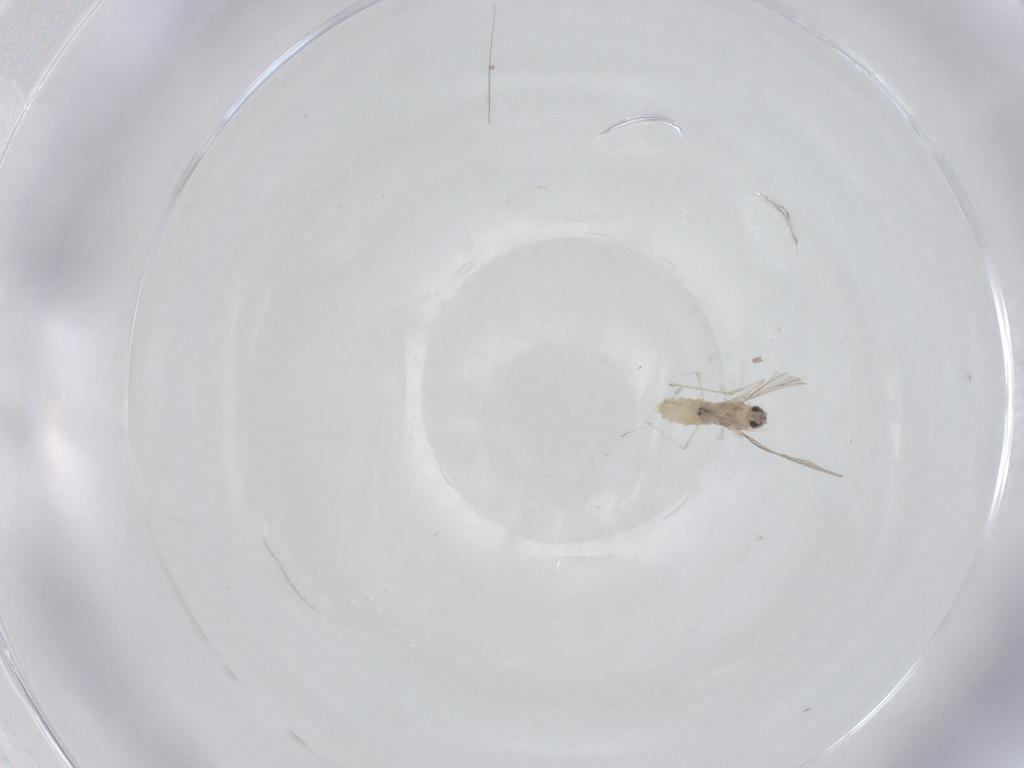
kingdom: Animalia
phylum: Arthropoda
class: Insecta
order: Diptera
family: Cecidomyiidae
